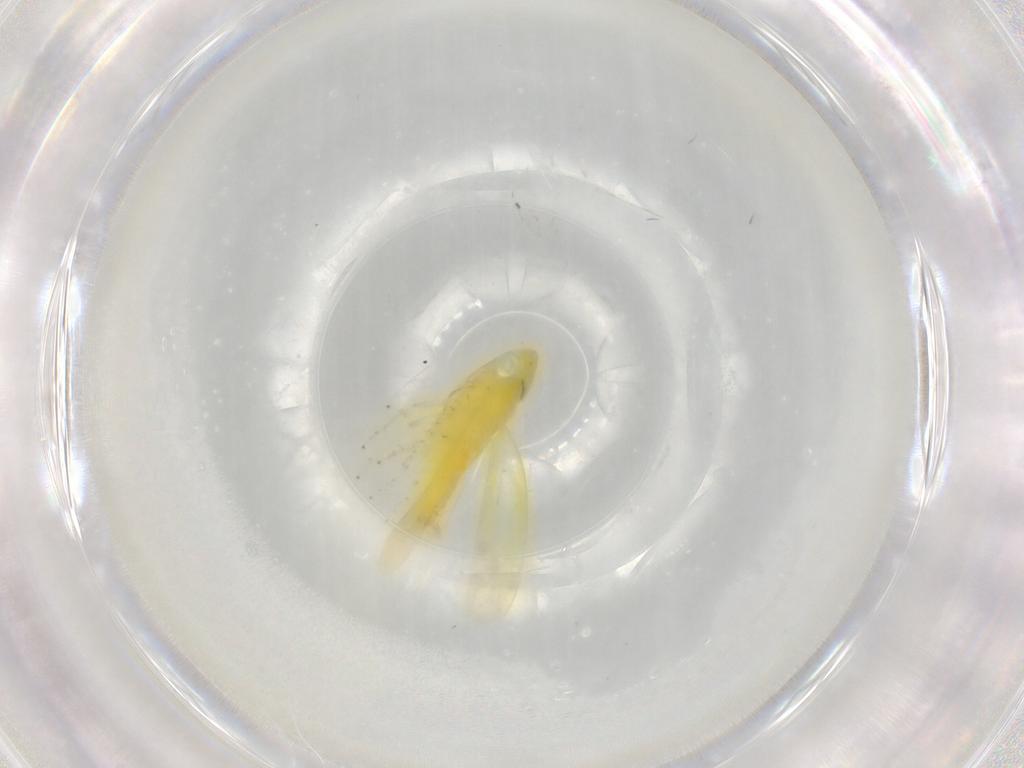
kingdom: Animalia
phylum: Arthropoda
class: Insecta
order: Hemiptera
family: Cicadellidae
